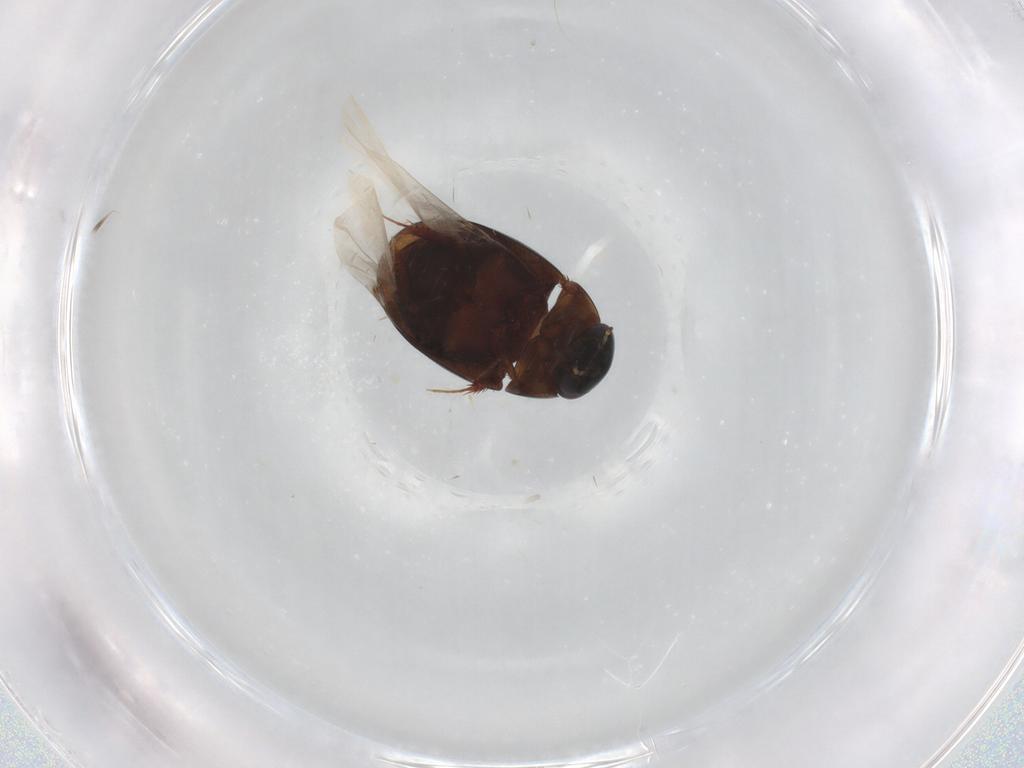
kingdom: Animalia
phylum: Arthropoda
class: Insecta
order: Coleoptera
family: Hydrophilidae
